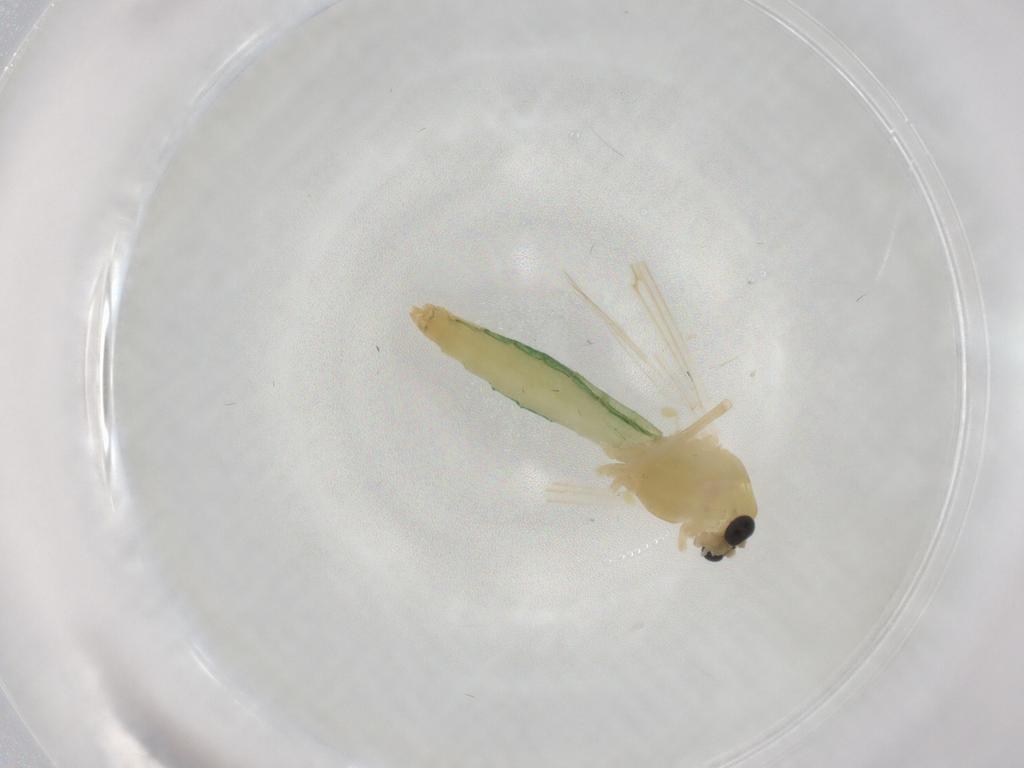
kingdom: Animalia
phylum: Arthropoda
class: Insecta
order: Diptera
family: Chironomidae
